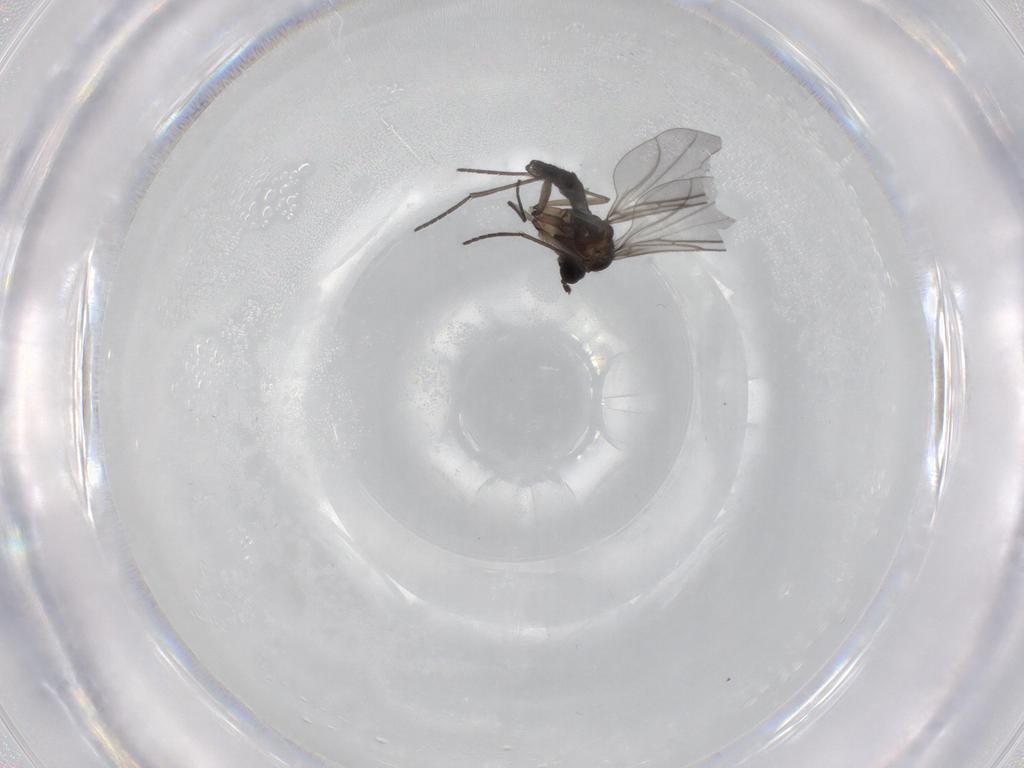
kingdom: Animalia
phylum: Arthropoda
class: Insecta
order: Diptera
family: Sciaridae
